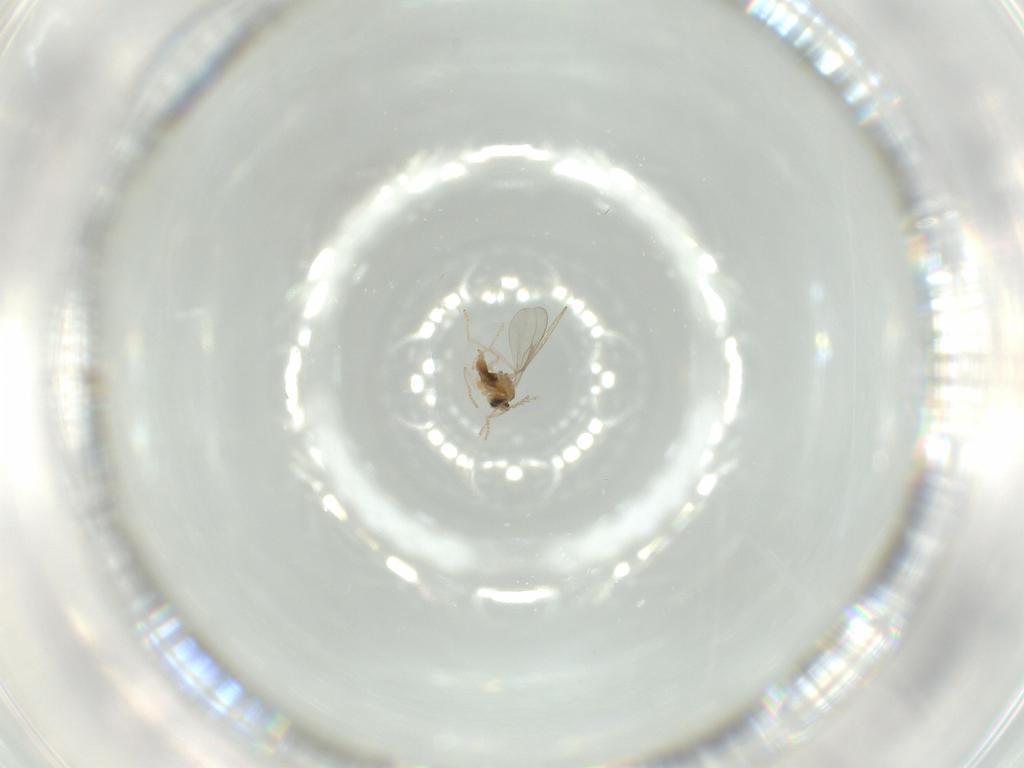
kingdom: Animalia
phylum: Arthropoda
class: Insecta
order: Diptera
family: Cecidomyiidae
